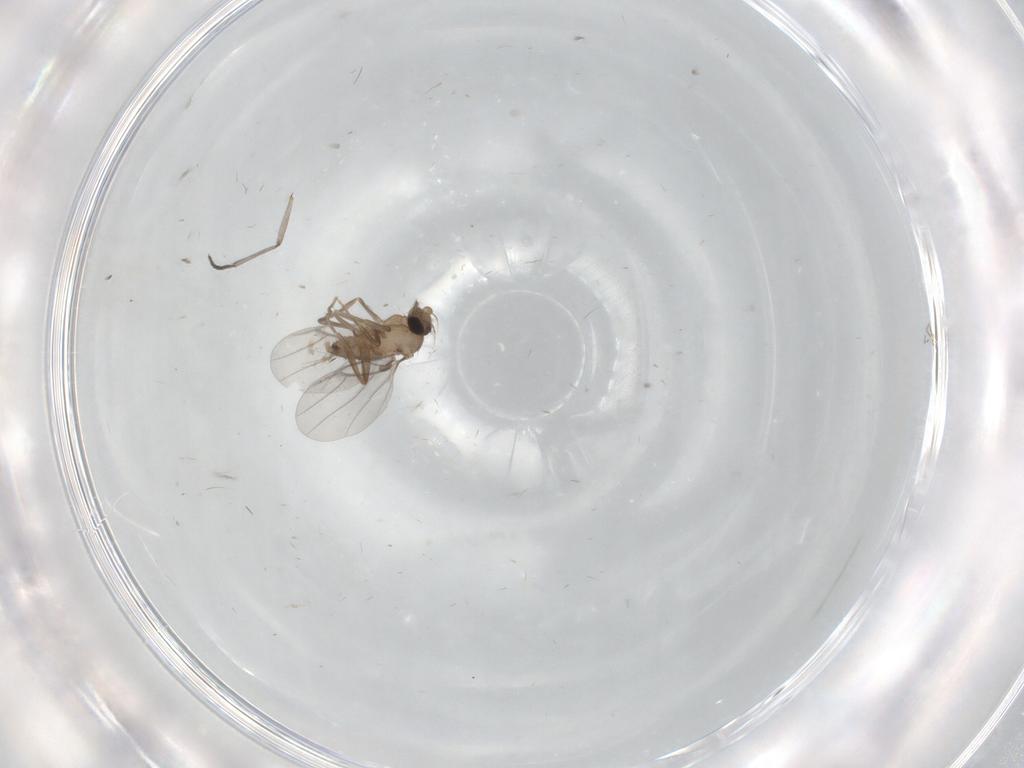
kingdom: Animalia
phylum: Arthropoda
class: Insecta
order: Diptera
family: Sciaridae
